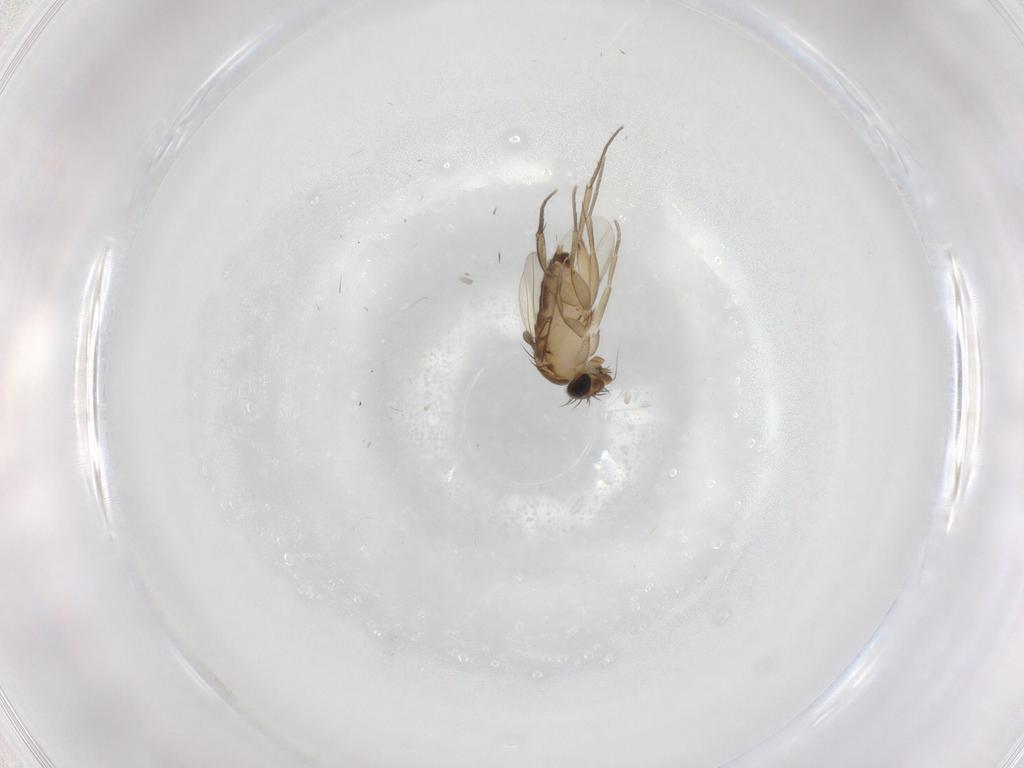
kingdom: Animalia
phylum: Arthropoda
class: Insecta
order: Diptera
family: Phoridae
